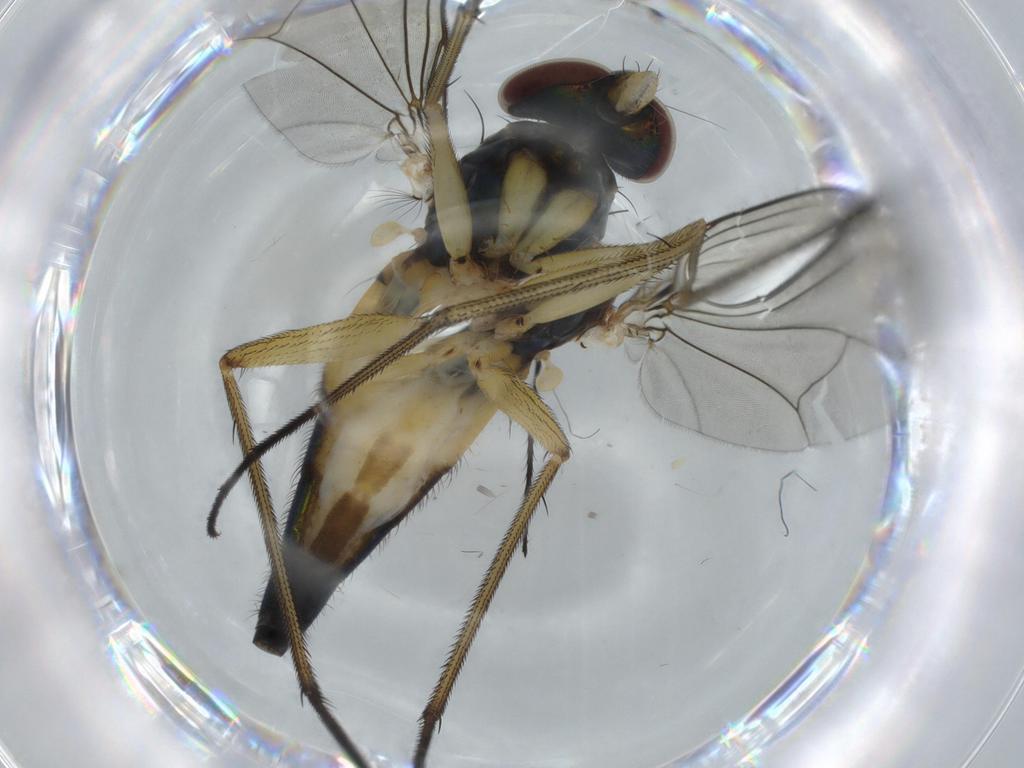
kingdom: Animalia
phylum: Arthropoda
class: Insecta
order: Diptera
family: Dolichopodidae
